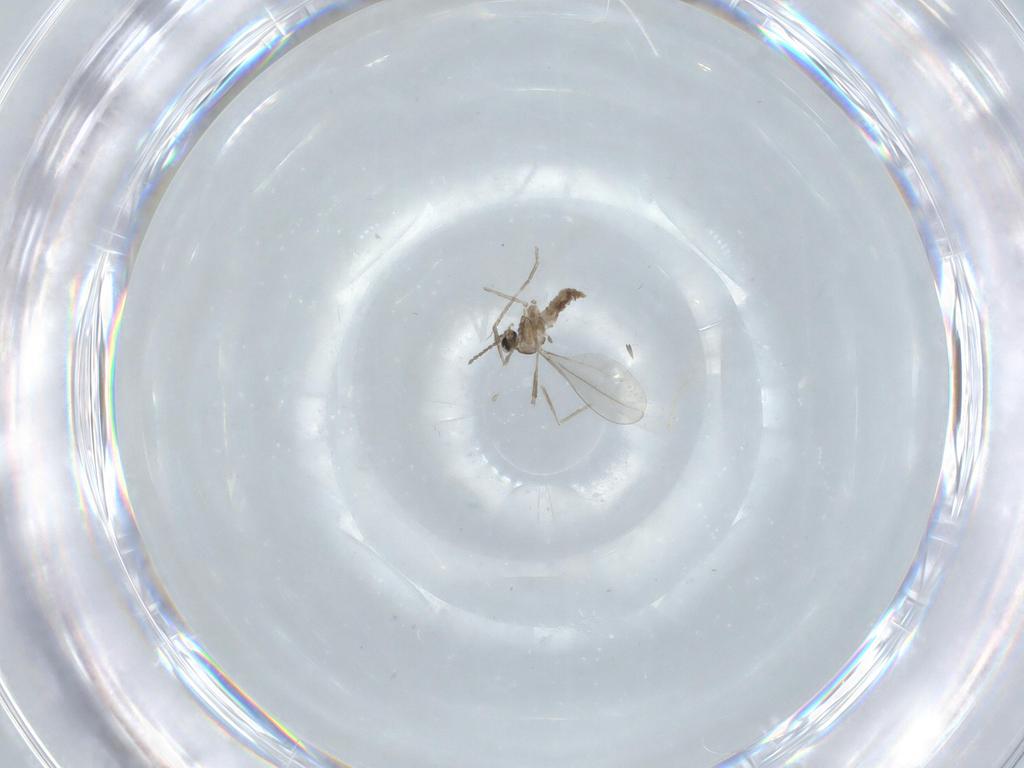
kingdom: Animalia
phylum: Arthropoda
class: Insecta
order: Diptera
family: Cecidomyiidae
